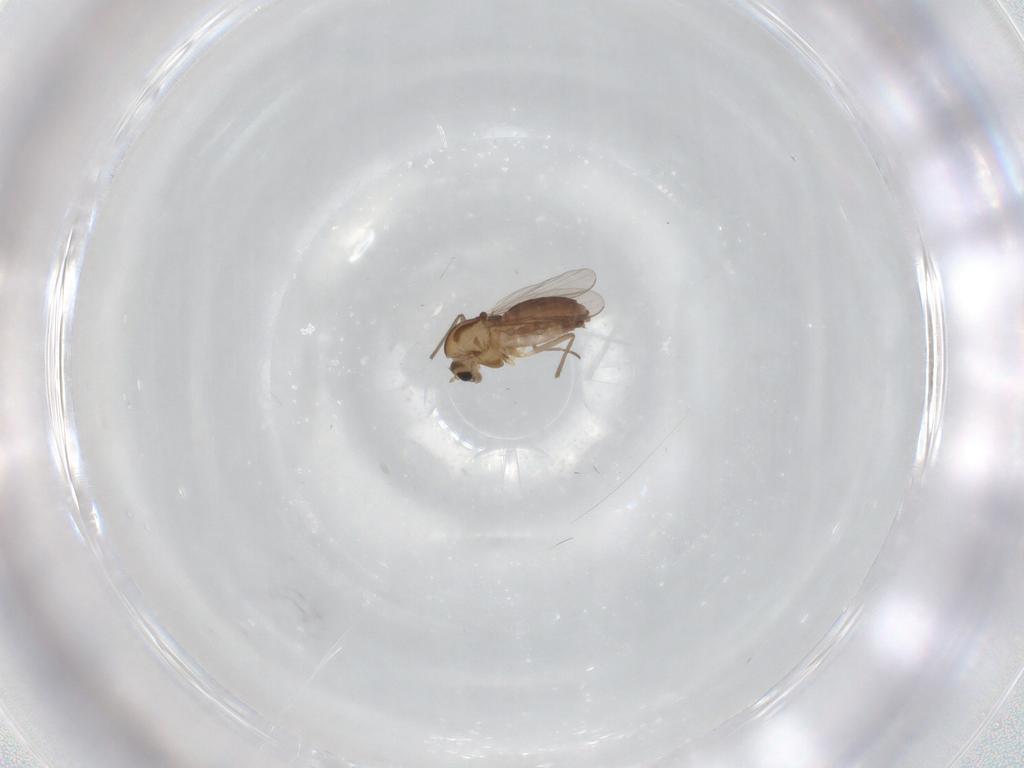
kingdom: Animalia
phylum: Arthropoda
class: Insecta
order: Diptera
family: Chironomidae
